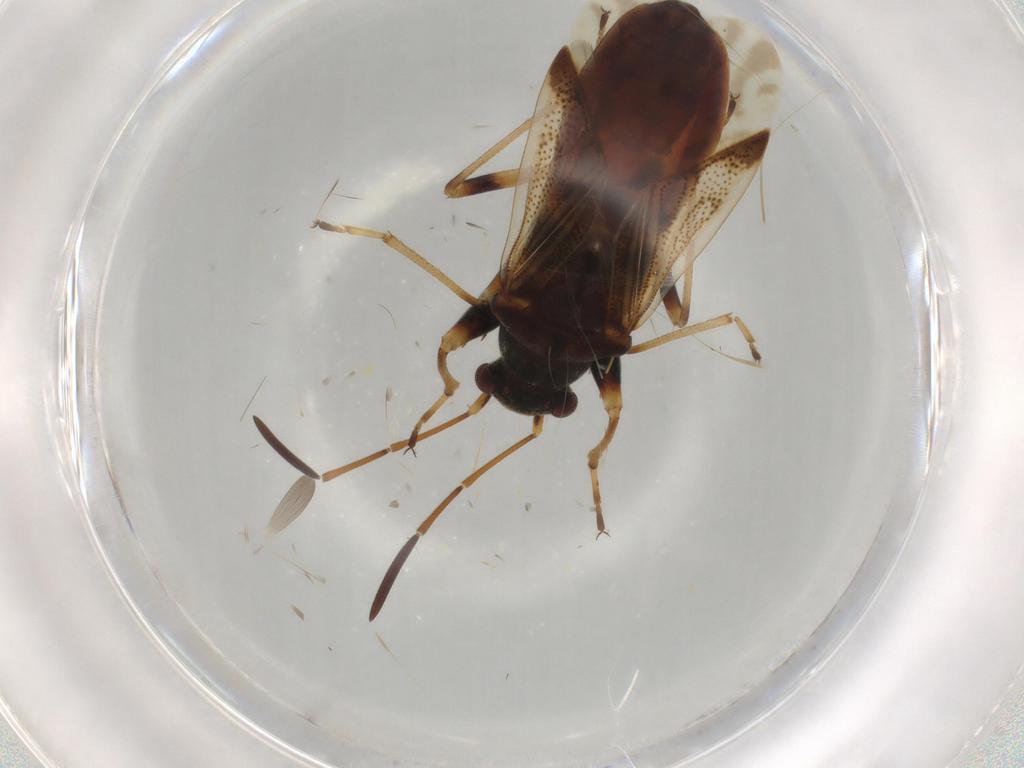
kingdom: Animalia
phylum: Arthropoda
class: Insecta
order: Hemiptera
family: Rhyparochromidae
